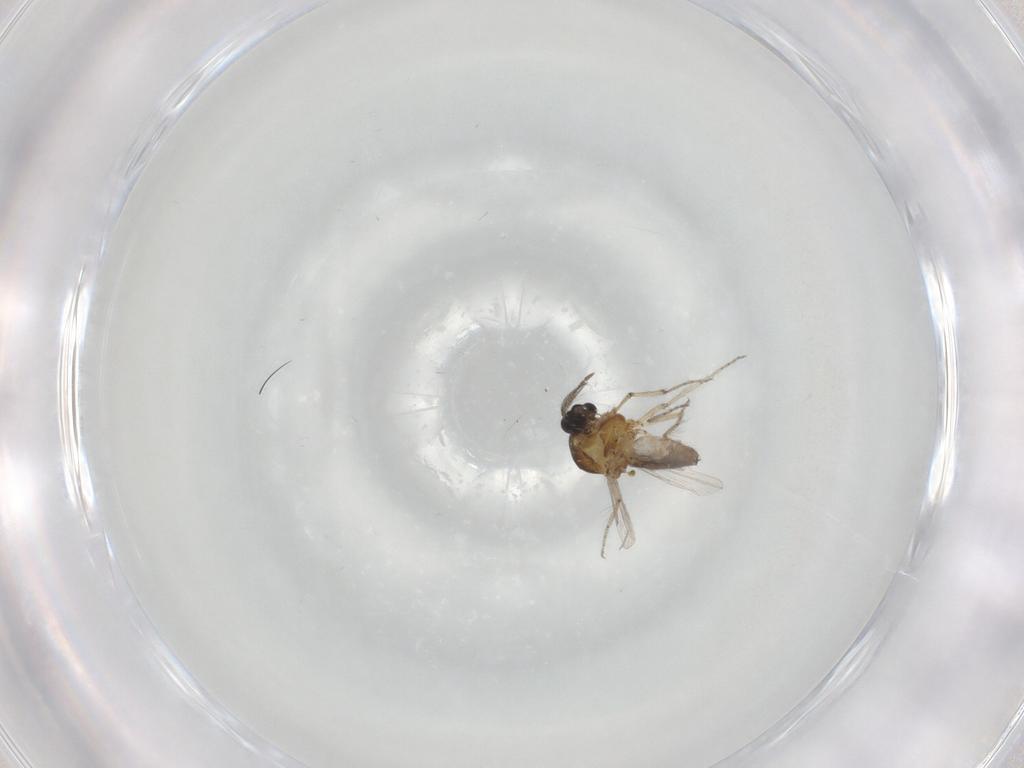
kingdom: Animalia
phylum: Arthropoda
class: Insecta
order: Diptera
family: Ceratopogonidae
